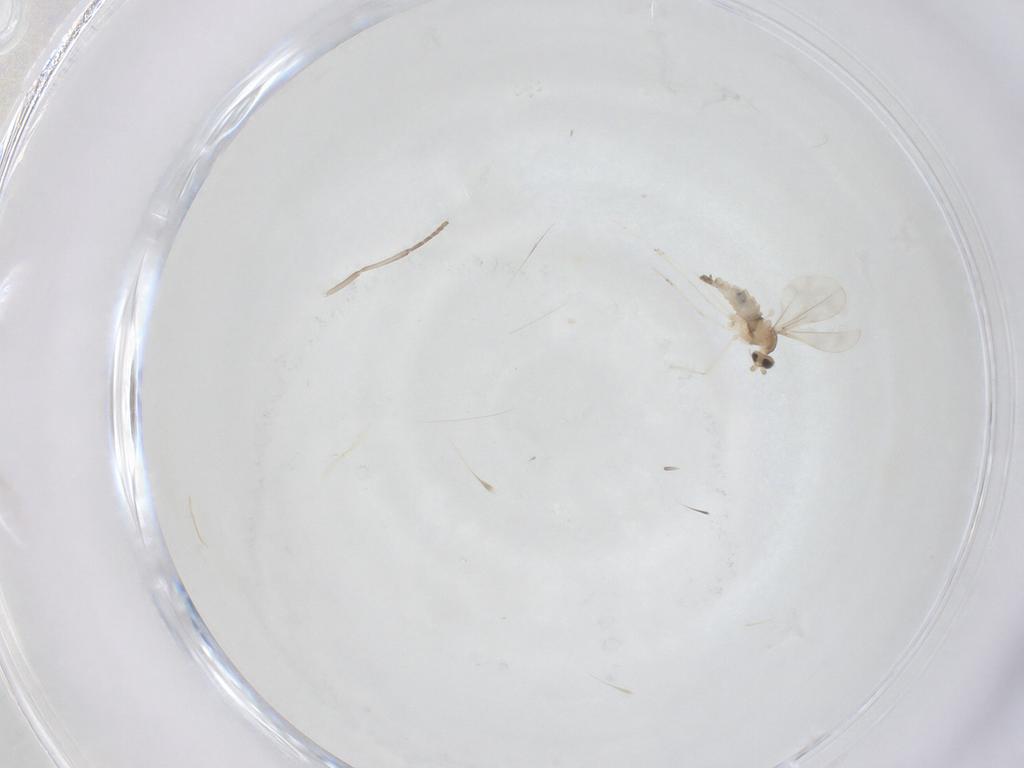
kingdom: Animalia
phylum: Arthropoda
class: Insecta
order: Diptera
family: Cecidomyiidae
